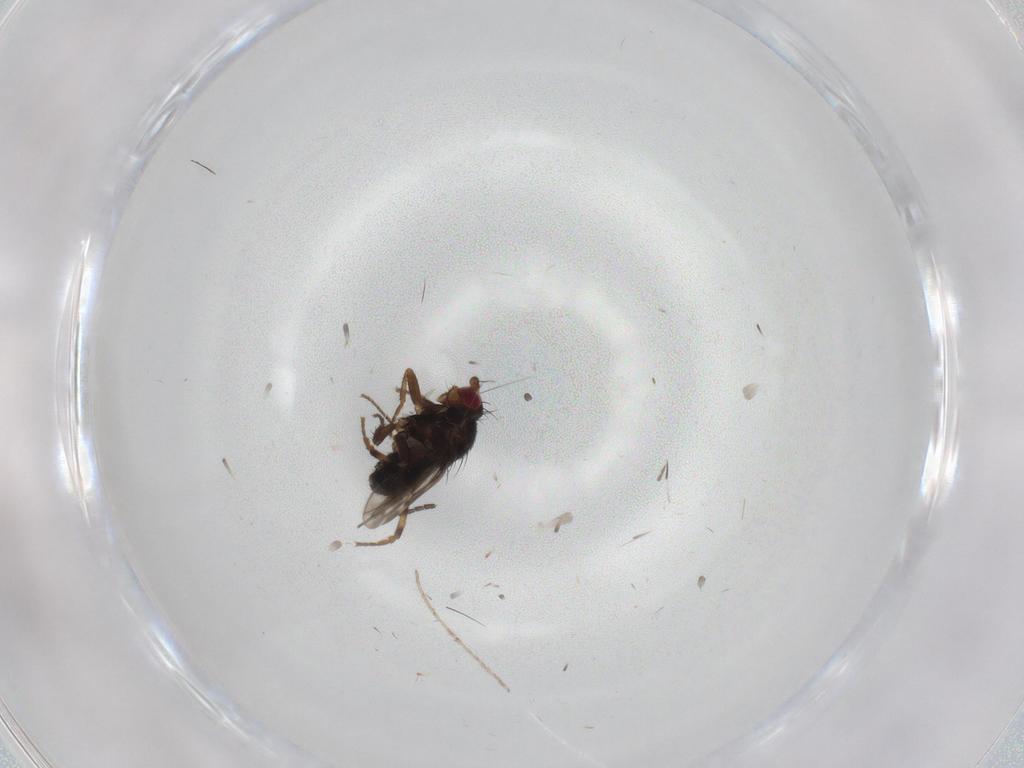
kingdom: Animalia
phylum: Arthropoda
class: Insecta
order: Diptera
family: Sphaeroceridae
